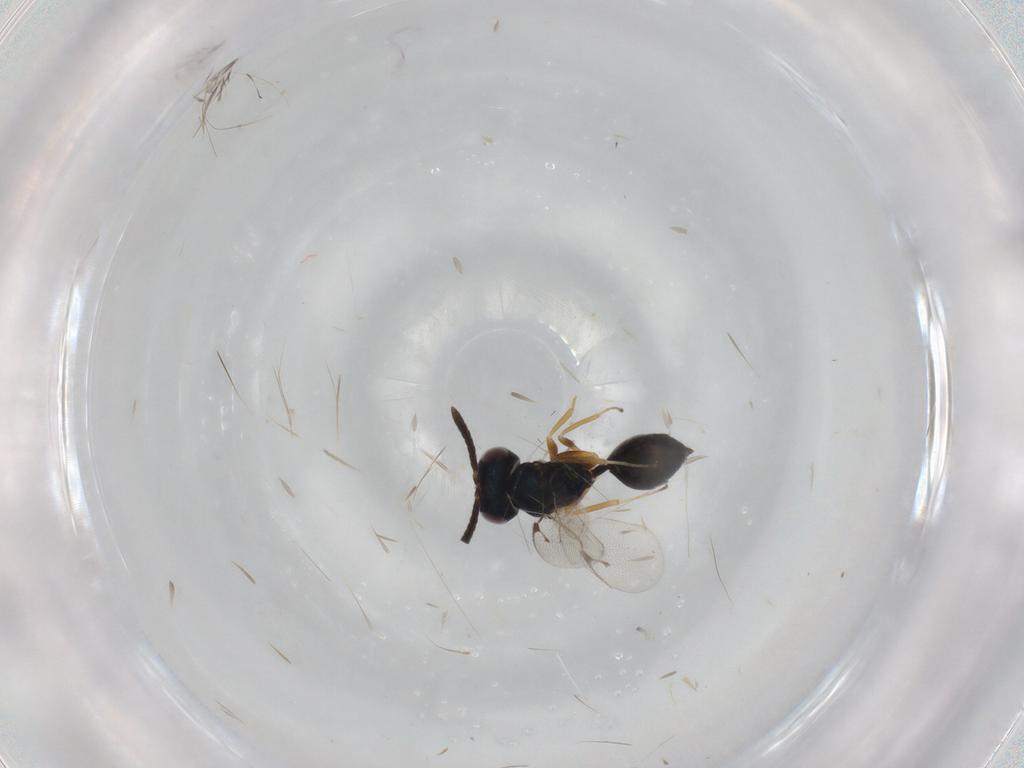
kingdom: Animalia
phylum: Arthropoda
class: Insecta
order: Hymenoptera
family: Pteromalidae
